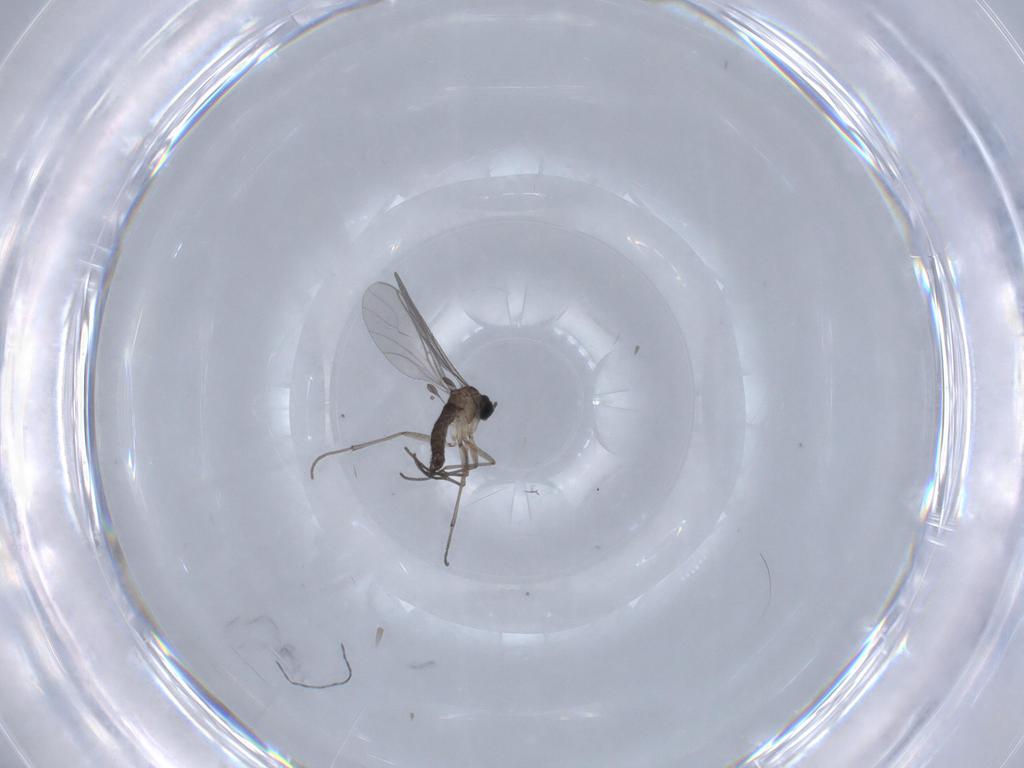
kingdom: Animalia
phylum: Arthropoda
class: Insecta
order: Diptera
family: Sciaridae
